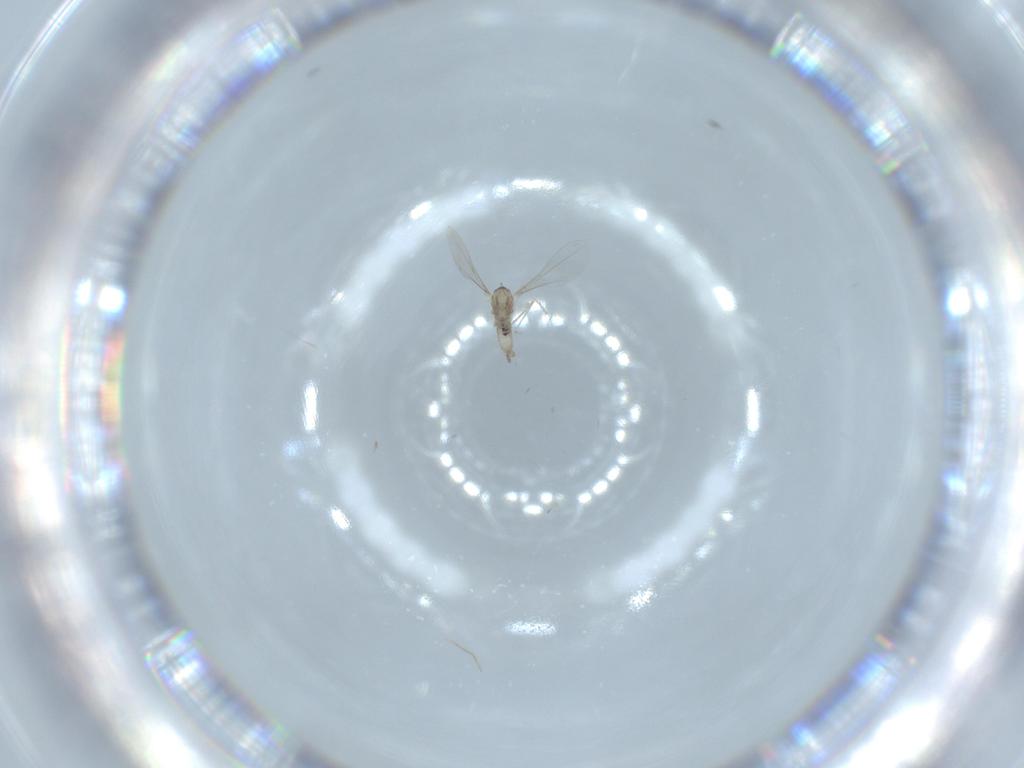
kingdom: Animalia
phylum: Arthropoda
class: Insecta
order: Diptera
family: Cecidomyiidae
